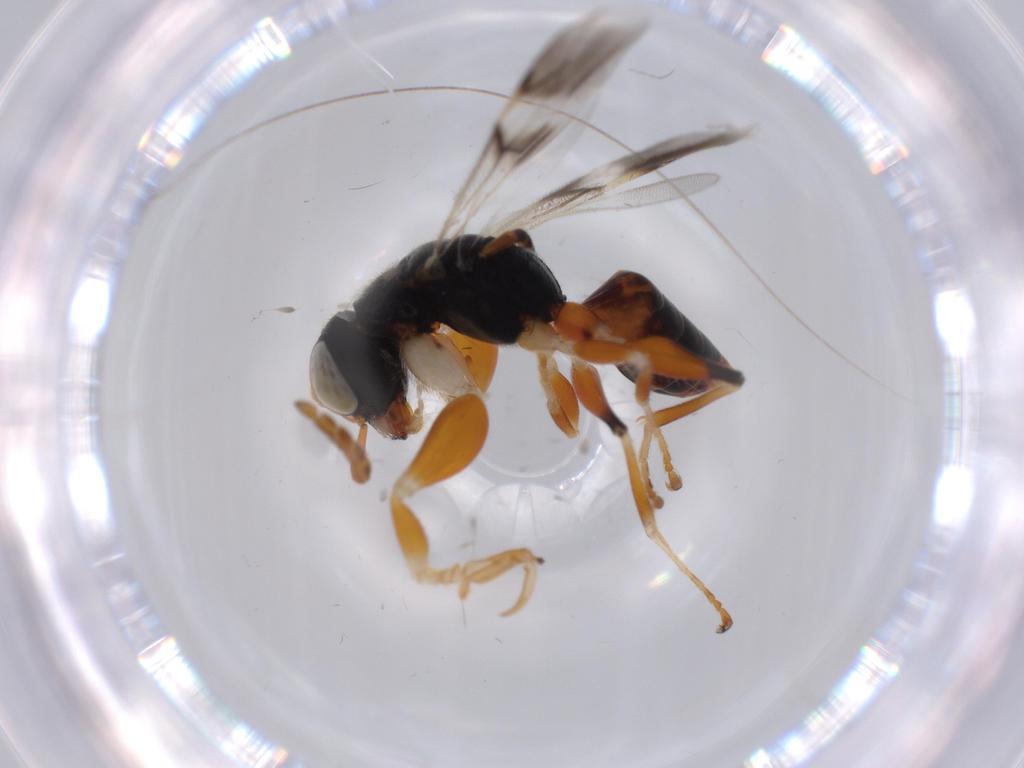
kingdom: Animalia
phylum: Arthropoda
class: Insecta
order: Hymenoptera
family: Dryinidae
